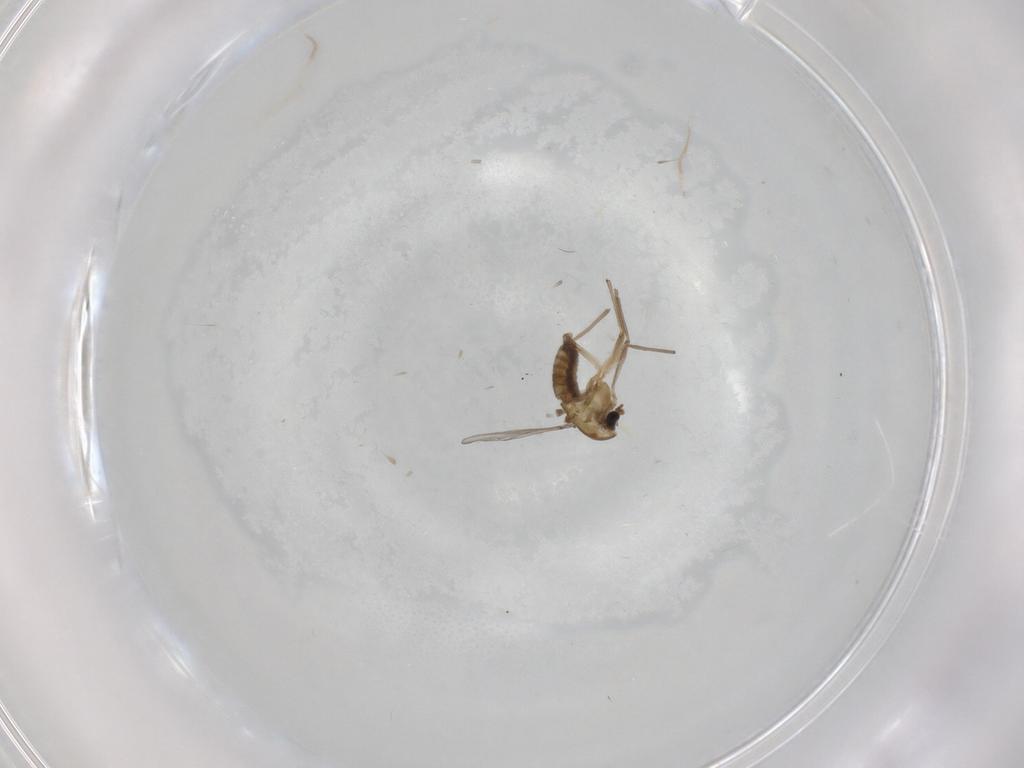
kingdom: Animalia
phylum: Arthropoda
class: Insecta
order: Diptera
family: Chironomidae
